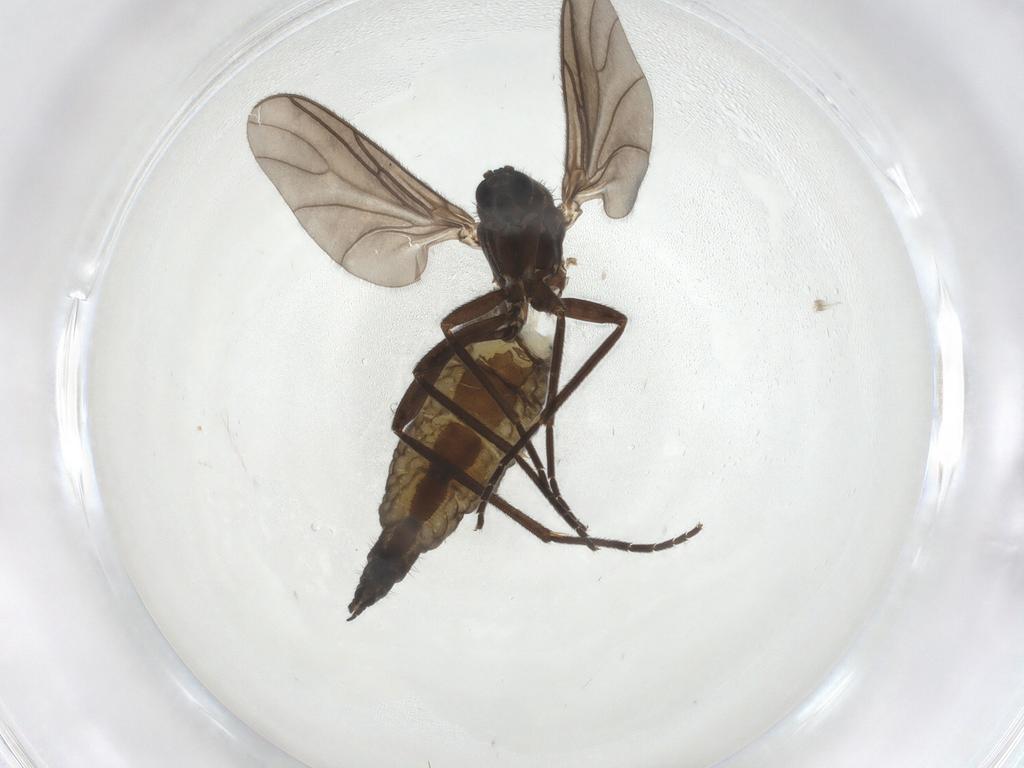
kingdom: Animalia
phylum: Arthropoda
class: Insecta
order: Diptera
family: Sciaridae
